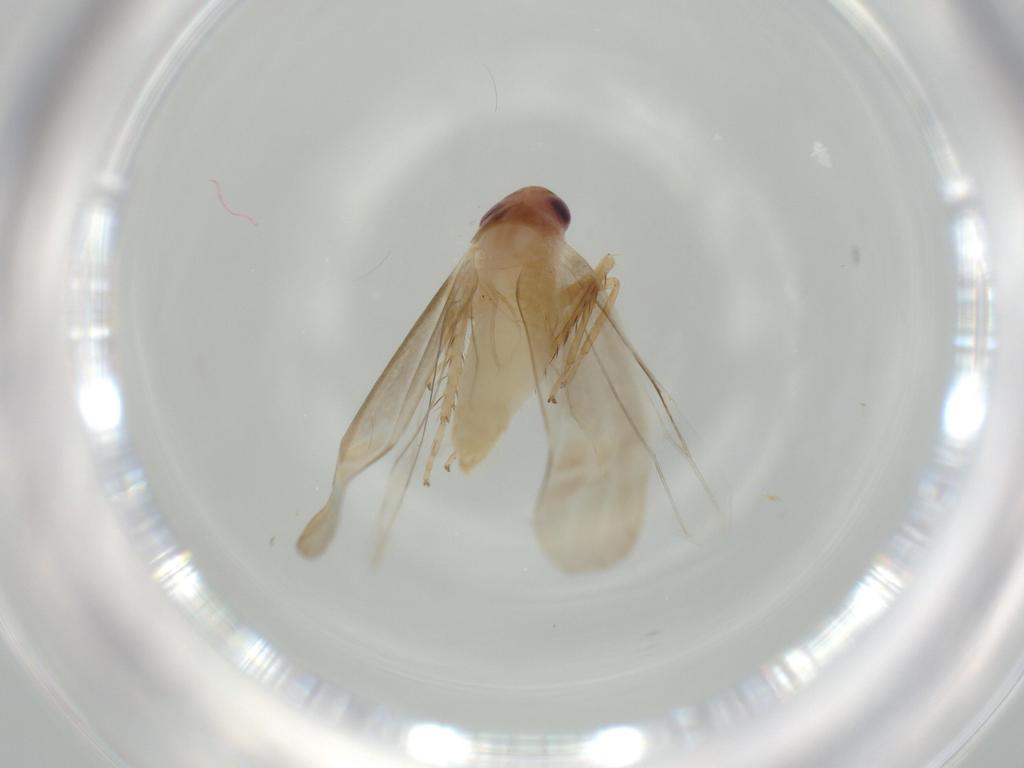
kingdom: Animalia
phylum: Arthropoda
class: Insecta
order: Hemiptera
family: Cicadellidae
